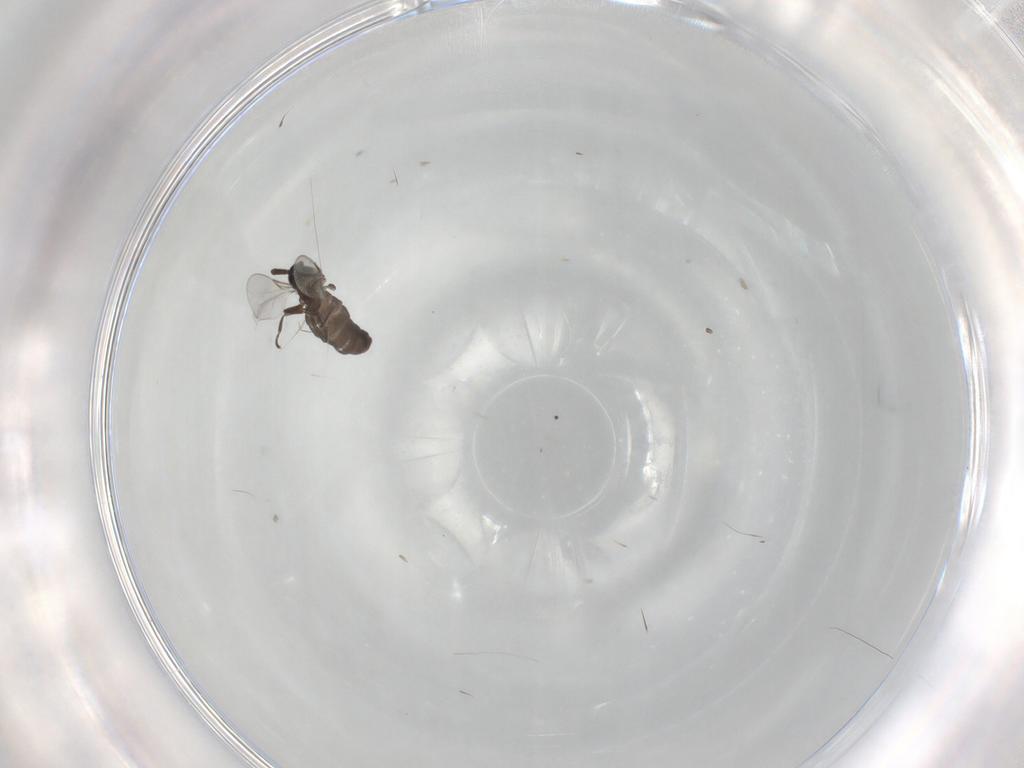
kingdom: Animalia
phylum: Arthropoda
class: Insecta
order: Diptera
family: Scatopsidae
